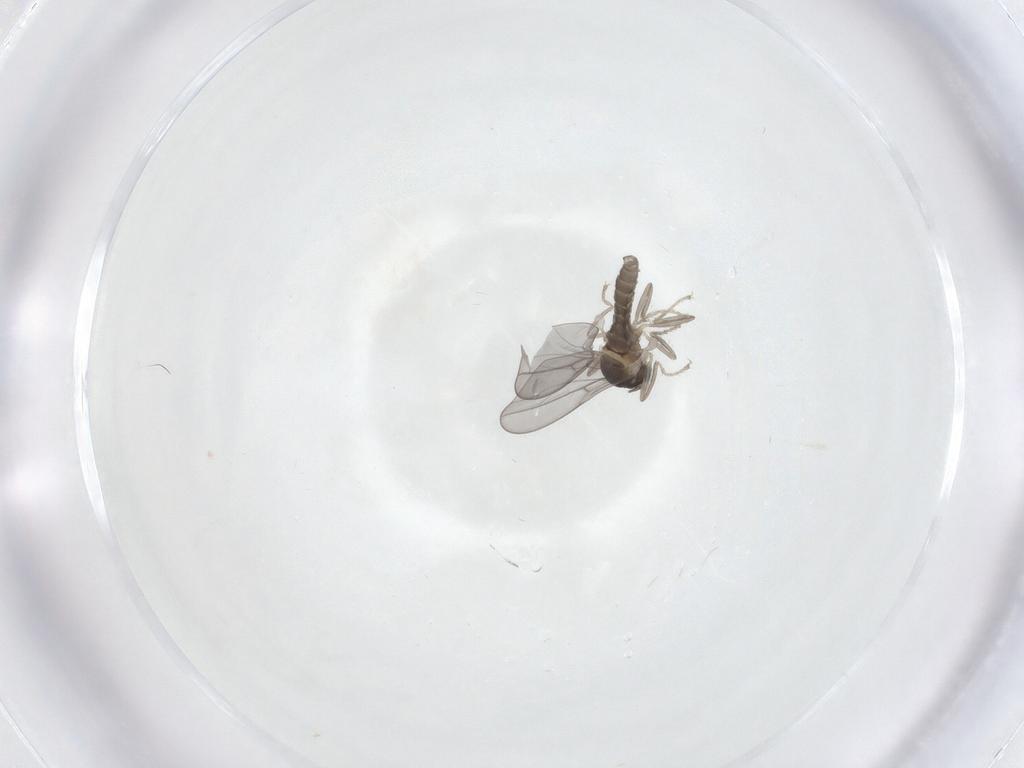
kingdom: Animalia
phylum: Arthropoda
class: Insecta
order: Diptera
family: Cecidomyiidae
